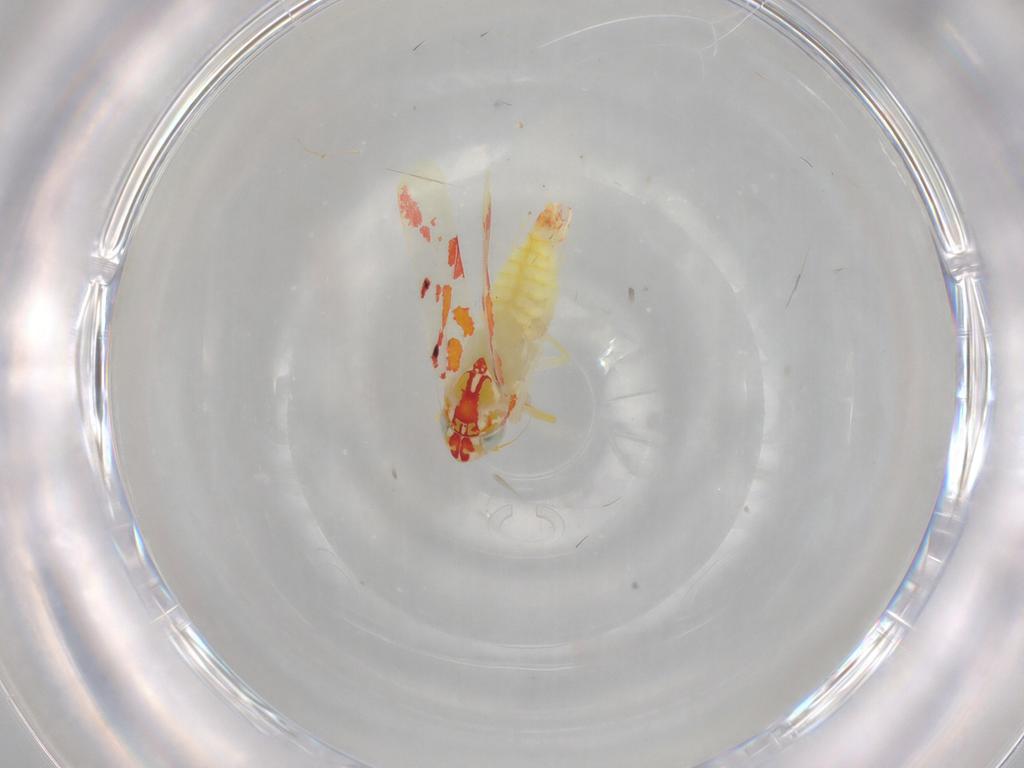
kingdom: Animalia
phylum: Arthropoda
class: Insecta
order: Hemiptera
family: Cicadellidae
